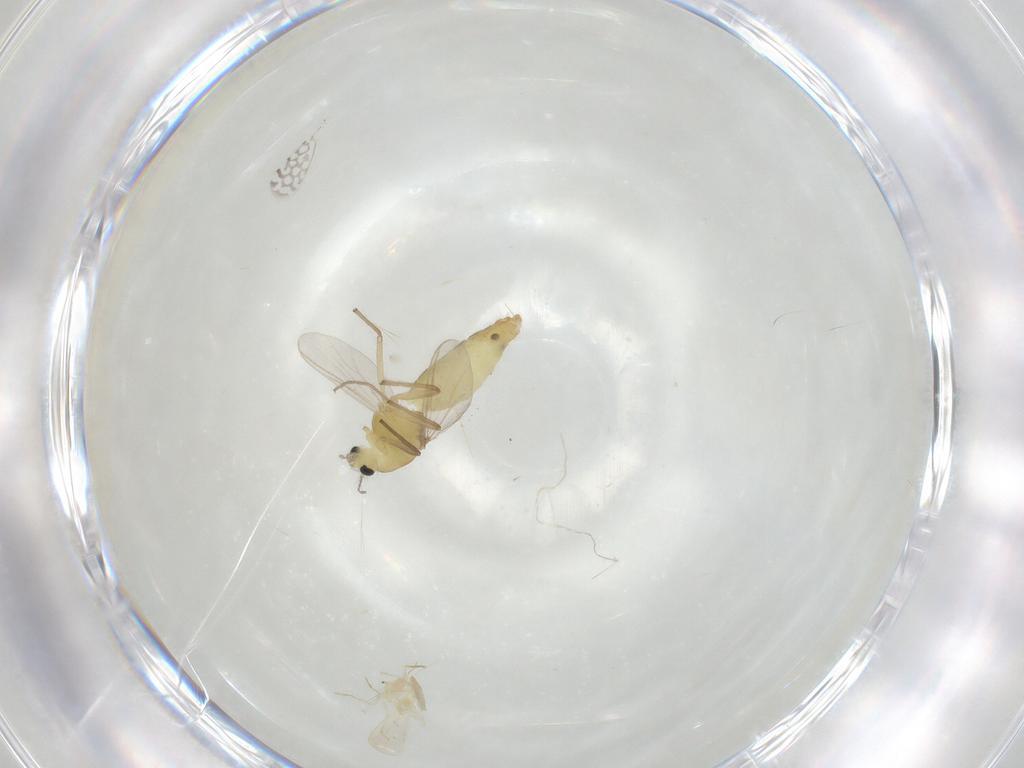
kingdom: Animalia
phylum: Arthropoda
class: Insecta
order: Diptera
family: Chironomidae
